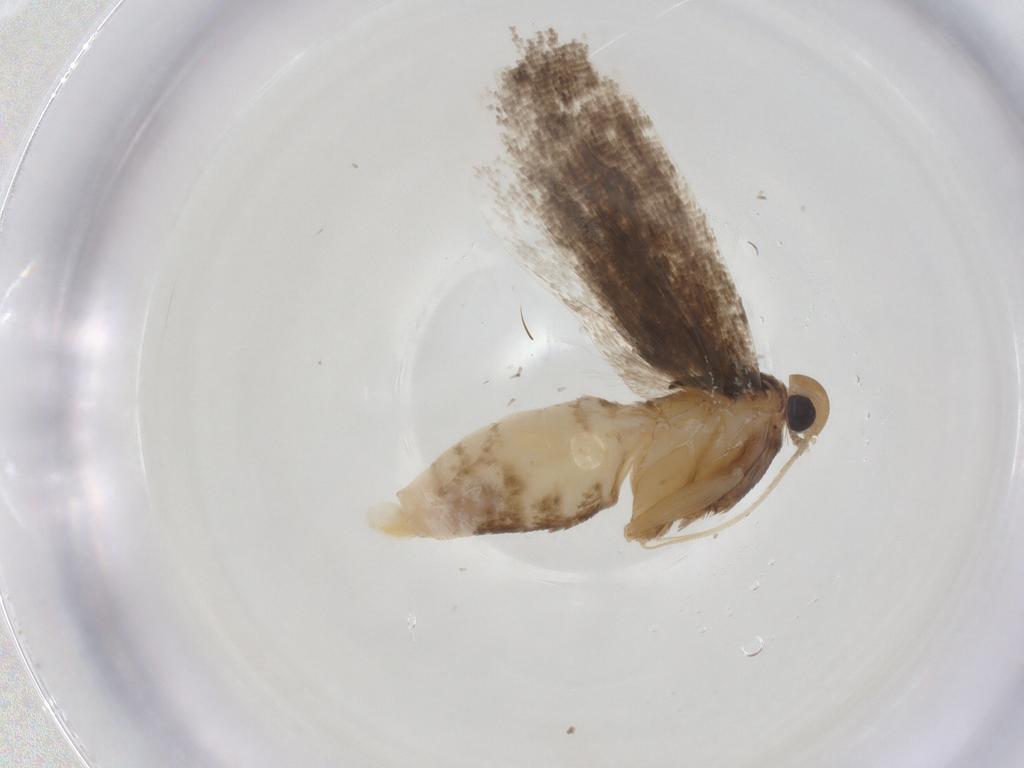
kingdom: Animalia
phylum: Arthropoda
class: Insecta
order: Lepidoptera
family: Gelechiidae
